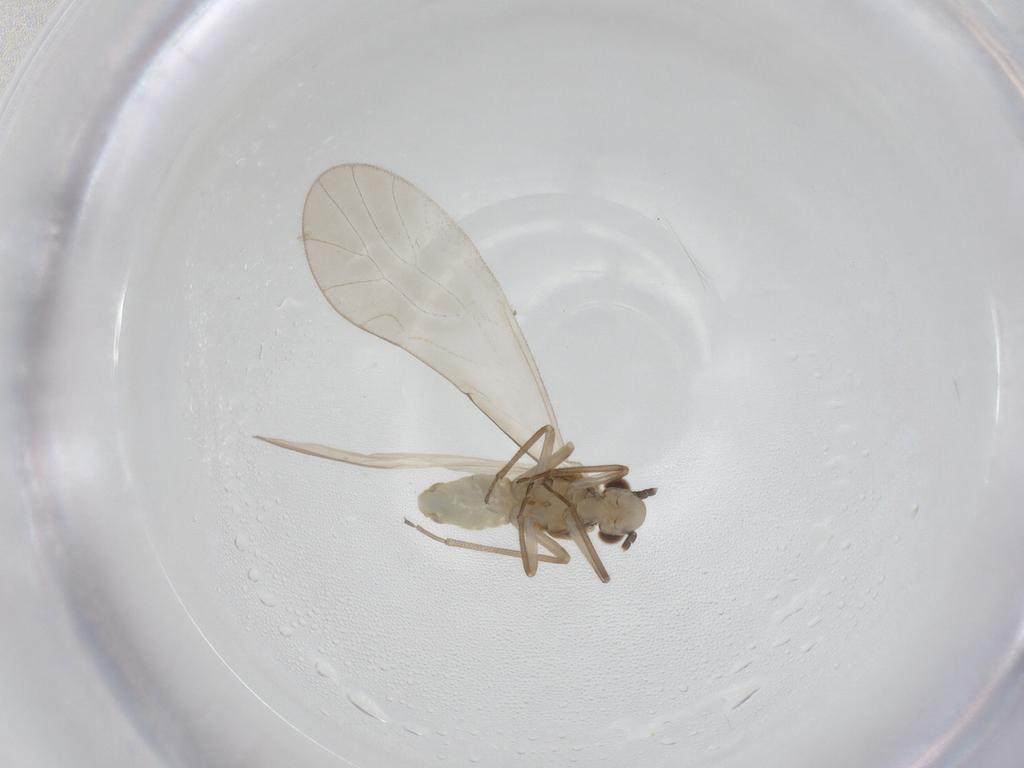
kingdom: Animalia
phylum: Arthropoda
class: Insecta
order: Psocodea
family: Caeciliusidae
